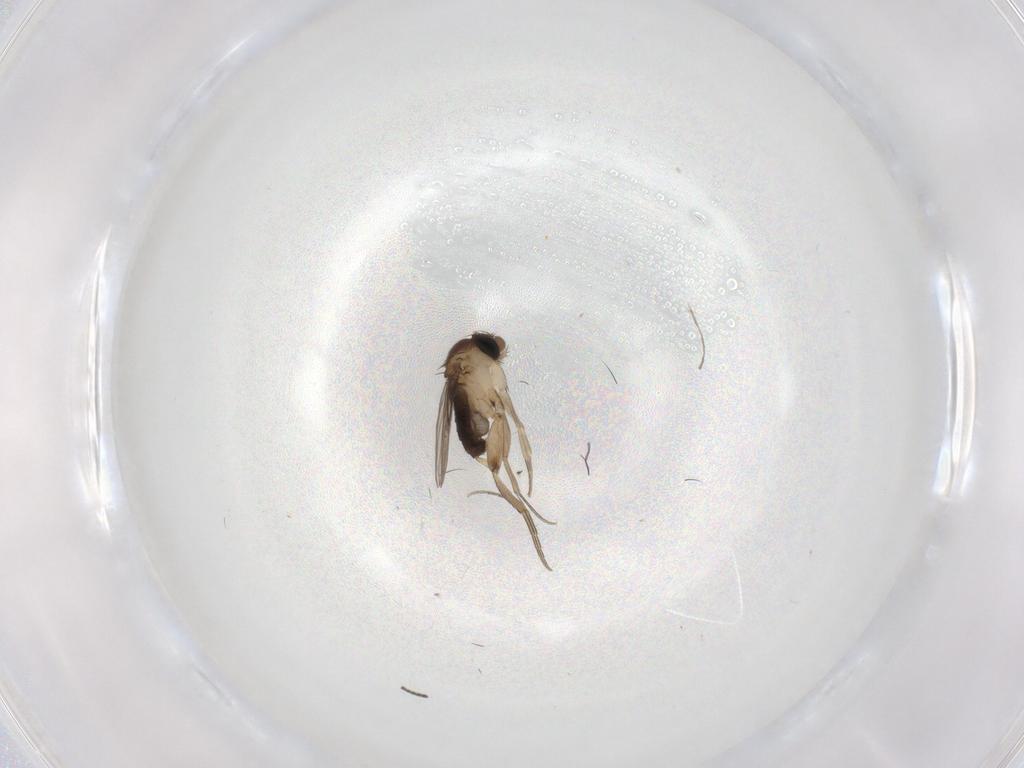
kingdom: Animalia
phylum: Arthropoda
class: Insecta
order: Diptera
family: Phoridae
